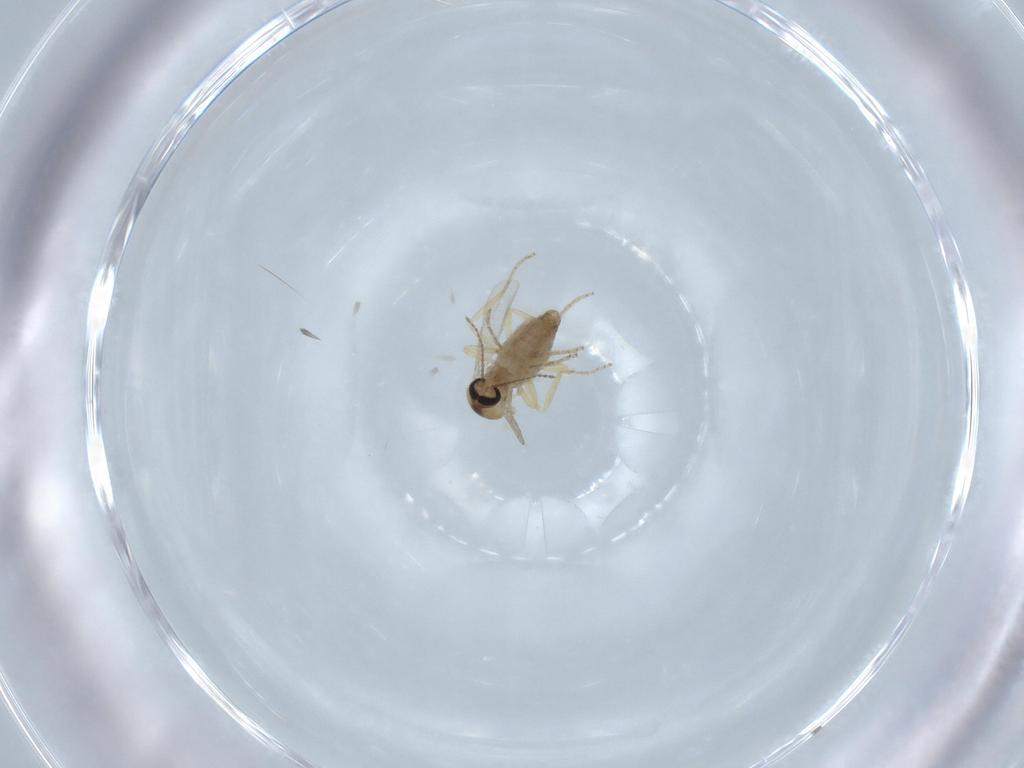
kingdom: Animalia
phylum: Arthropoda
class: Insecta
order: Diptera
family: Ceratopogonidae
